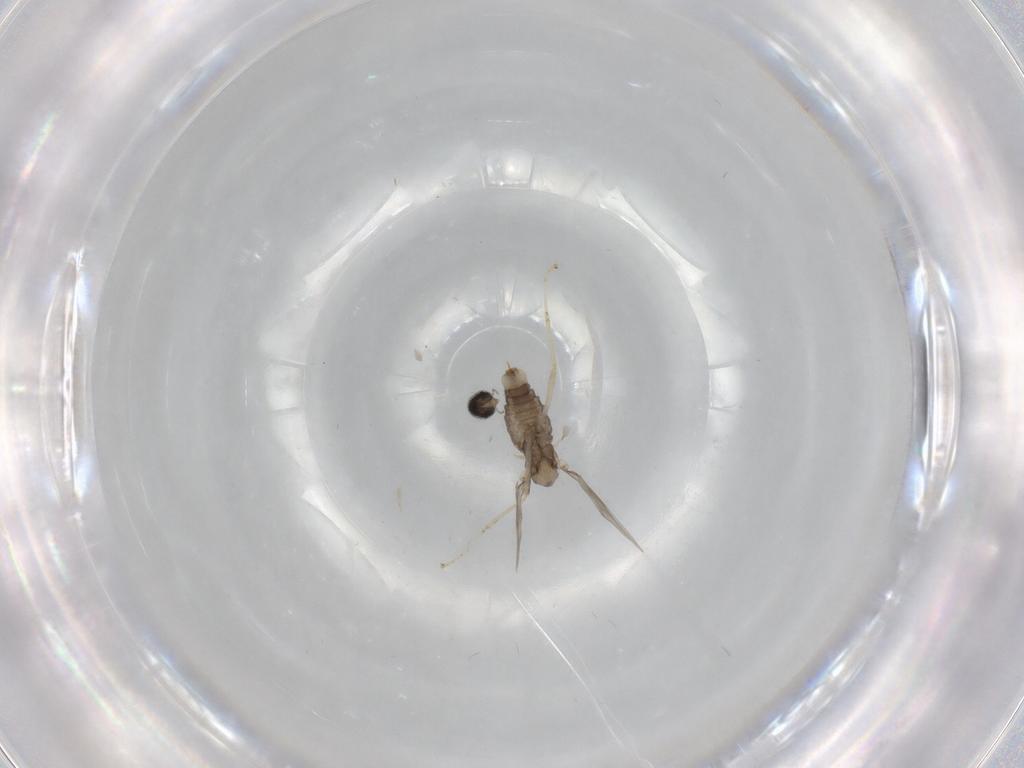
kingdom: Animalia
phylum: Arthropoda
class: Insecta
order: Diptera
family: Cecidomyiidae
